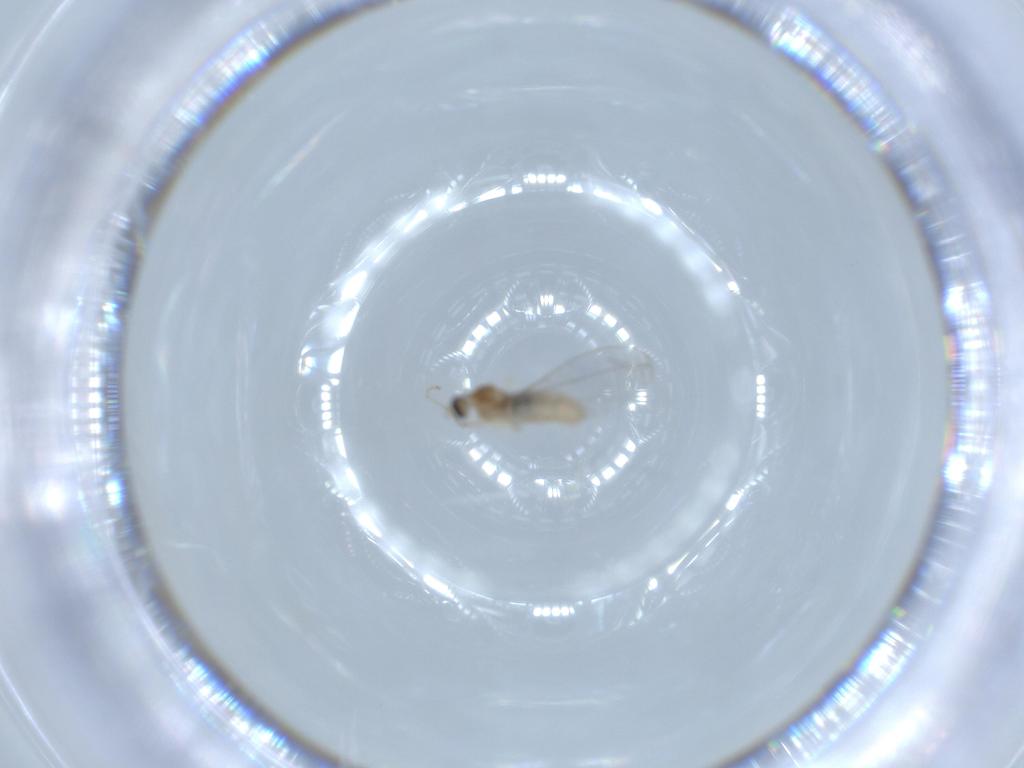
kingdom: Animalia
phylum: Arthropoda
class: Insecta
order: Diptera
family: Cecidomyiidae
